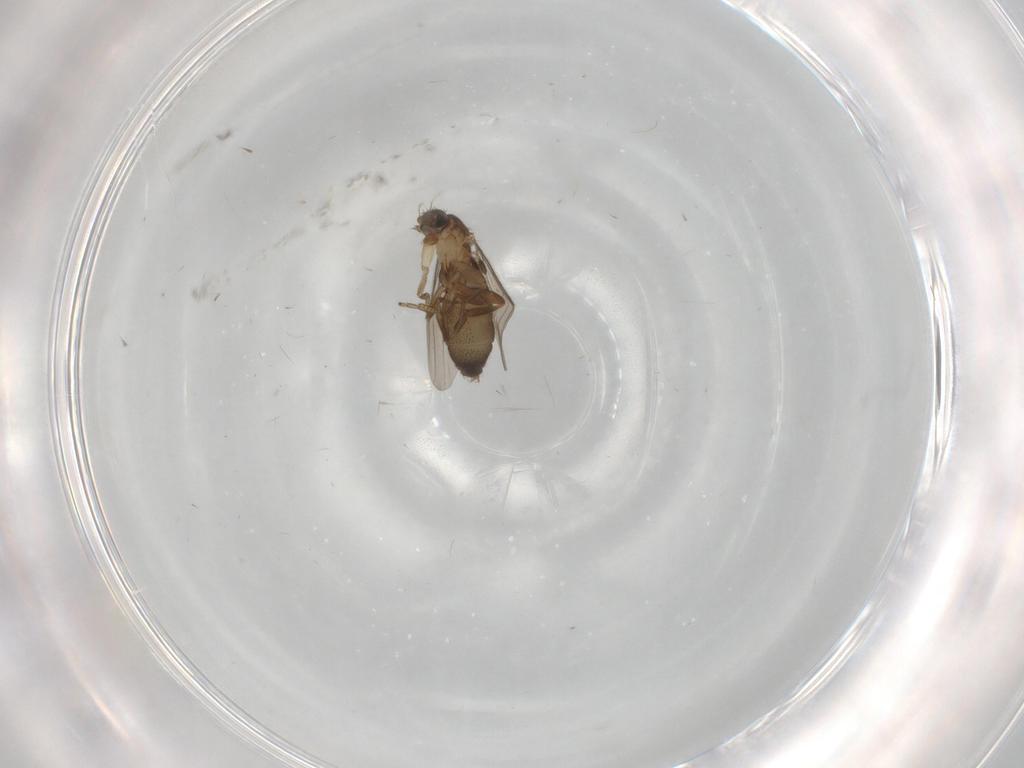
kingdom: Animalia
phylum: Arthropoda
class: Insecta
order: Diptera
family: Phoridae
